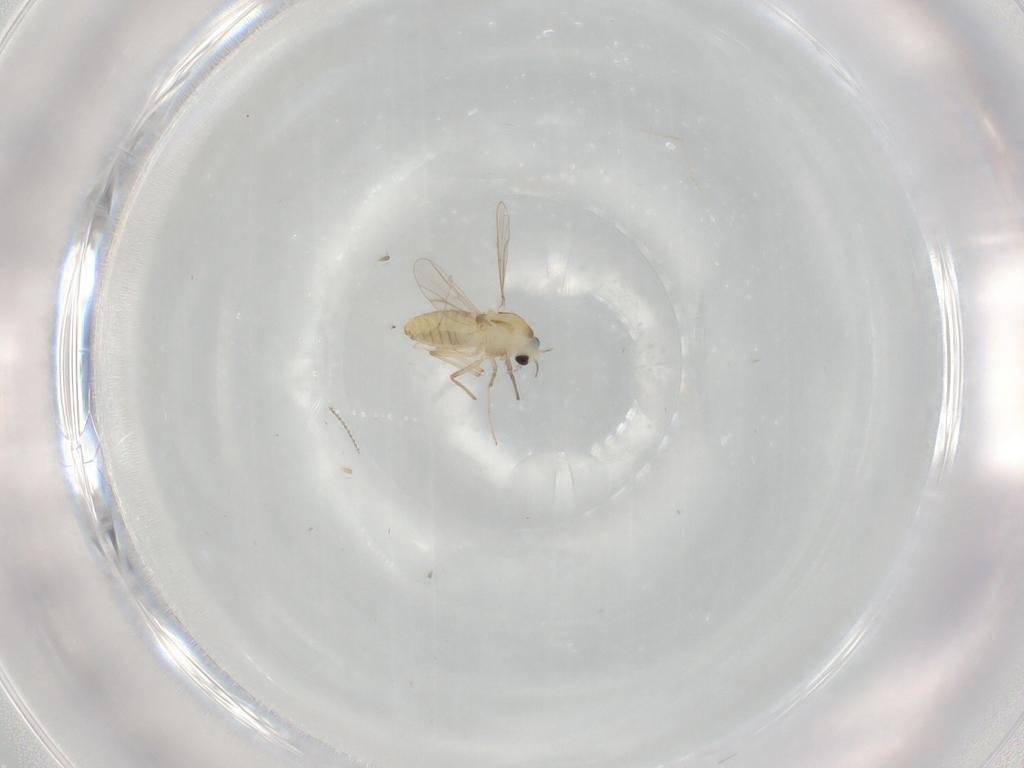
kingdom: Animalia
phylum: Arthropoda
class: Insecta
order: Diptera
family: Chironomidae
